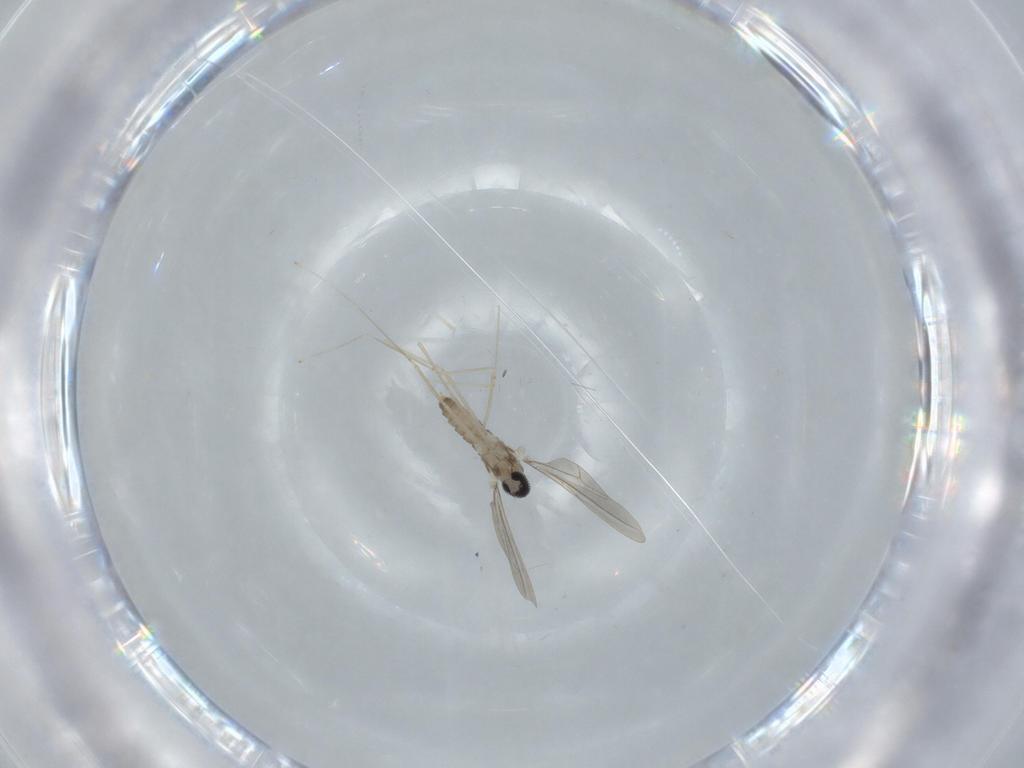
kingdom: Animalia
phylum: Arthropoda
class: Insecta
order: Diptera
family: Cecidomyiidae
